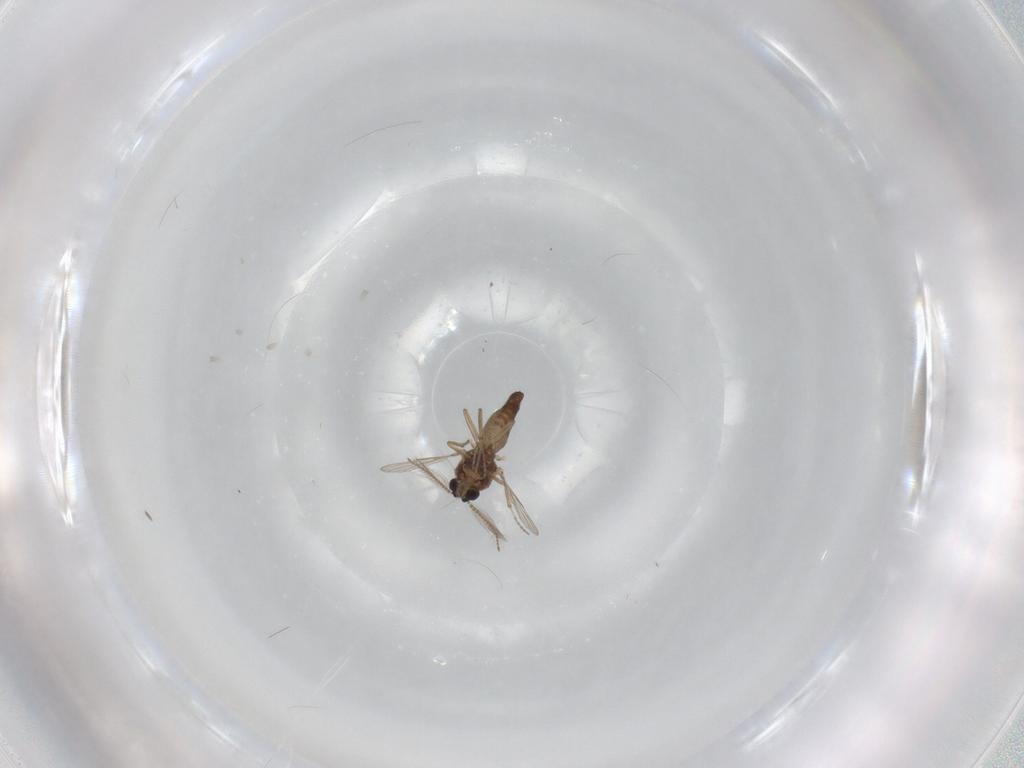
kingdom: Animalia
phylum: Arthropoda
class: Insecta
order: Diptera
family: Muscidae
